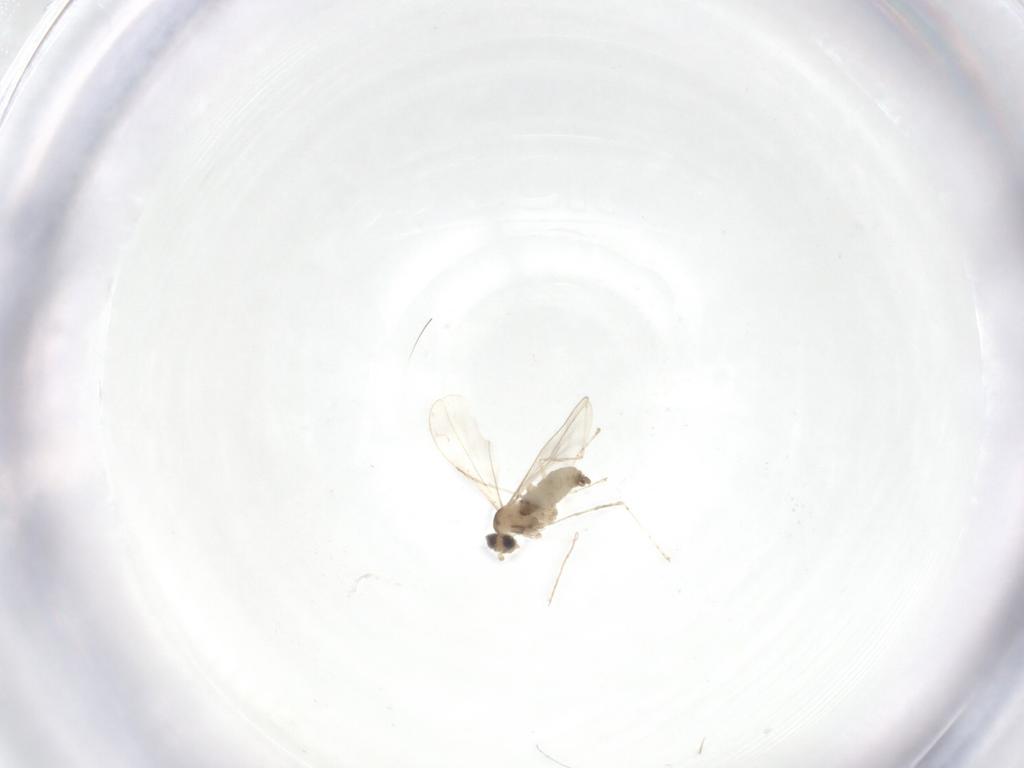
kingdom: Animalia
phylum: Arthropoda
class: Insecta
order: Diptera
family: Cecidomyiidae
